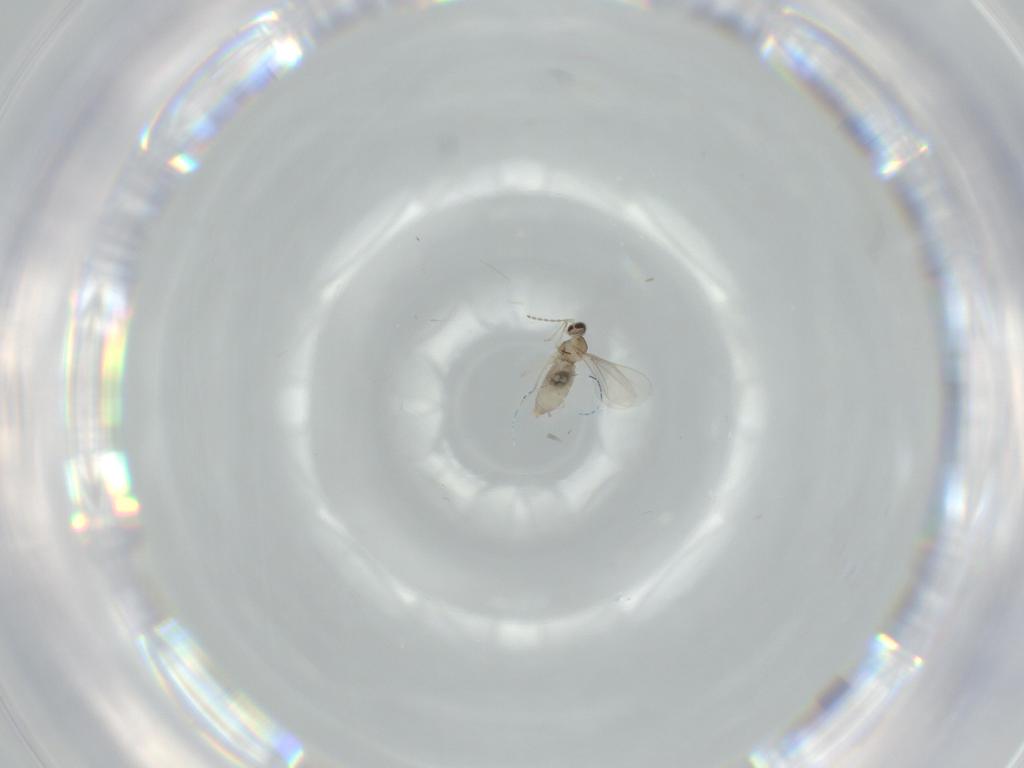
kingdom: Animalia
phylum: Arthropoda
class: Insecta
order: Diptera
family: Cecidomyiidae
